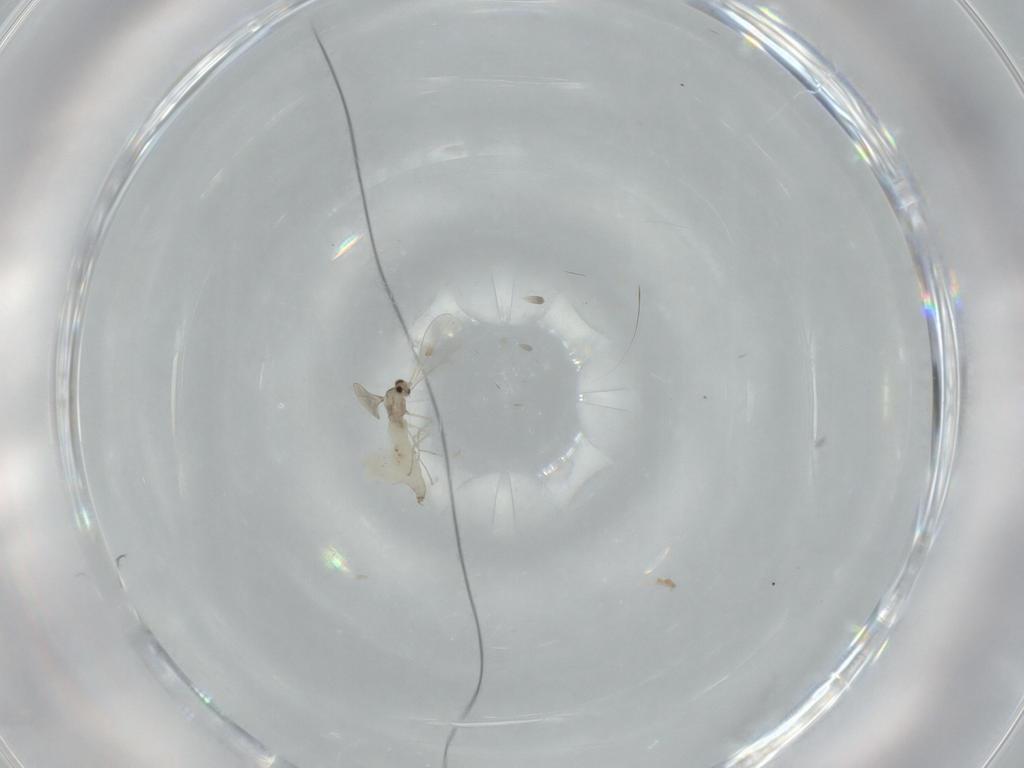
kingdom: Animalia
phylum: Arthropoda
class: Insecta
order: Diptera
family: Cecidomyiidae
